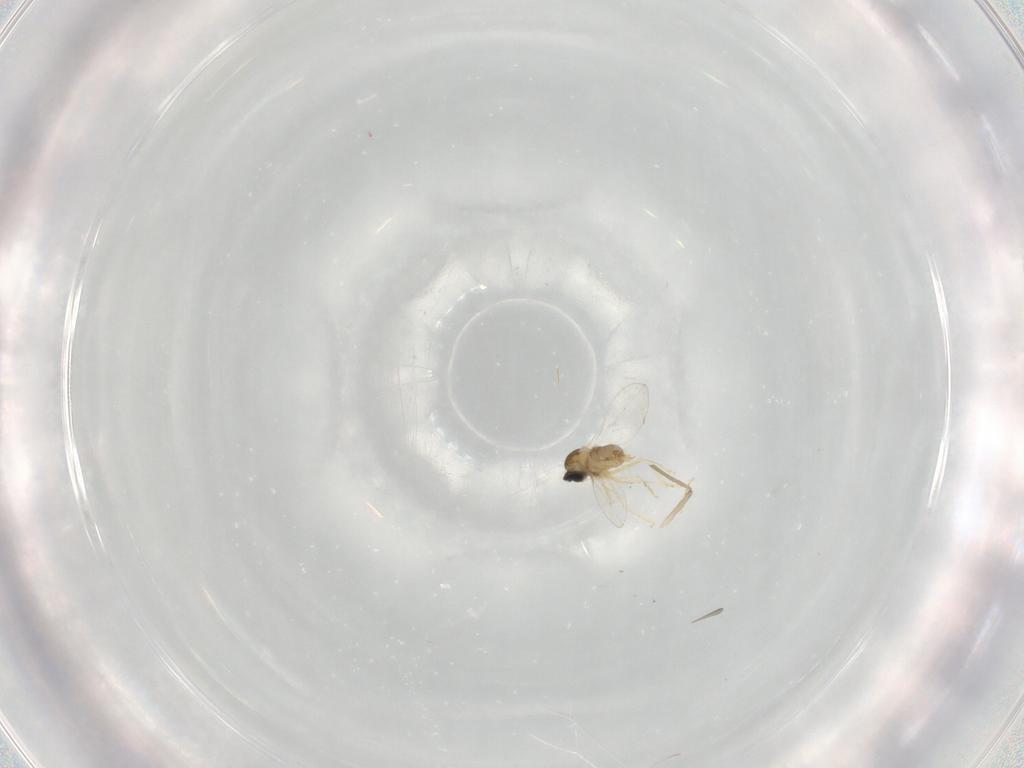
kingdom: Animalia
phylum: Arthropoda
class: Insecta
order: Diptera
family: Cecidomyiidae
